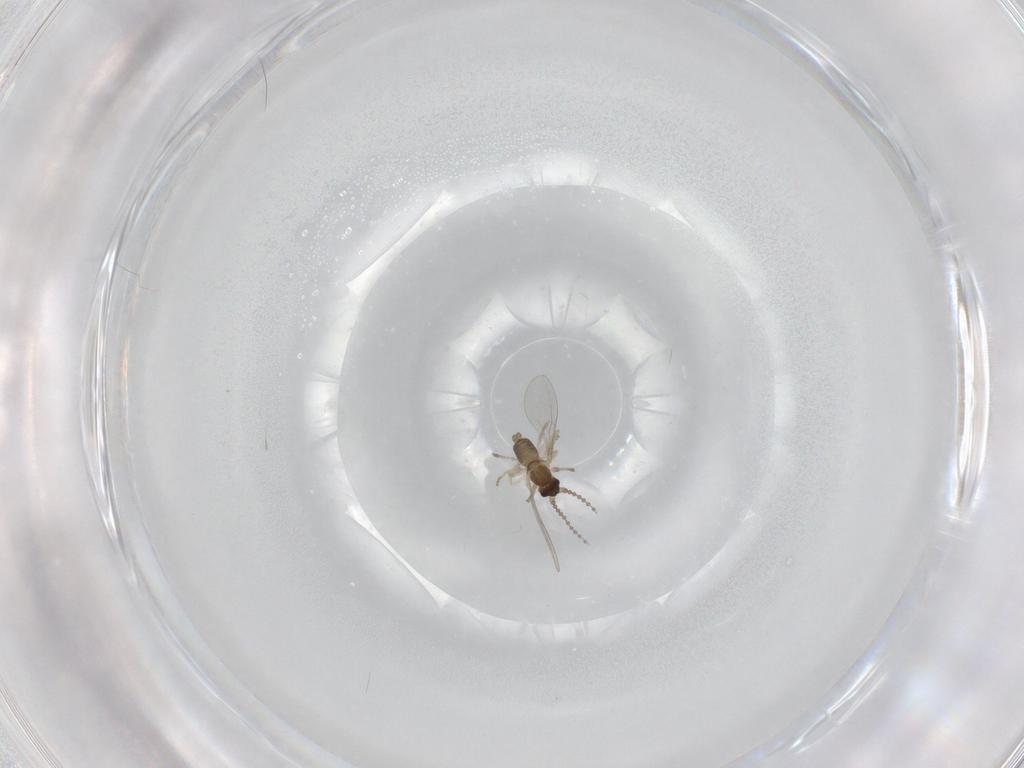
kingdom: Animalia
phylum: Arthropoda
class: Insecta
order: Diptera
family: Cecidomyiidae
